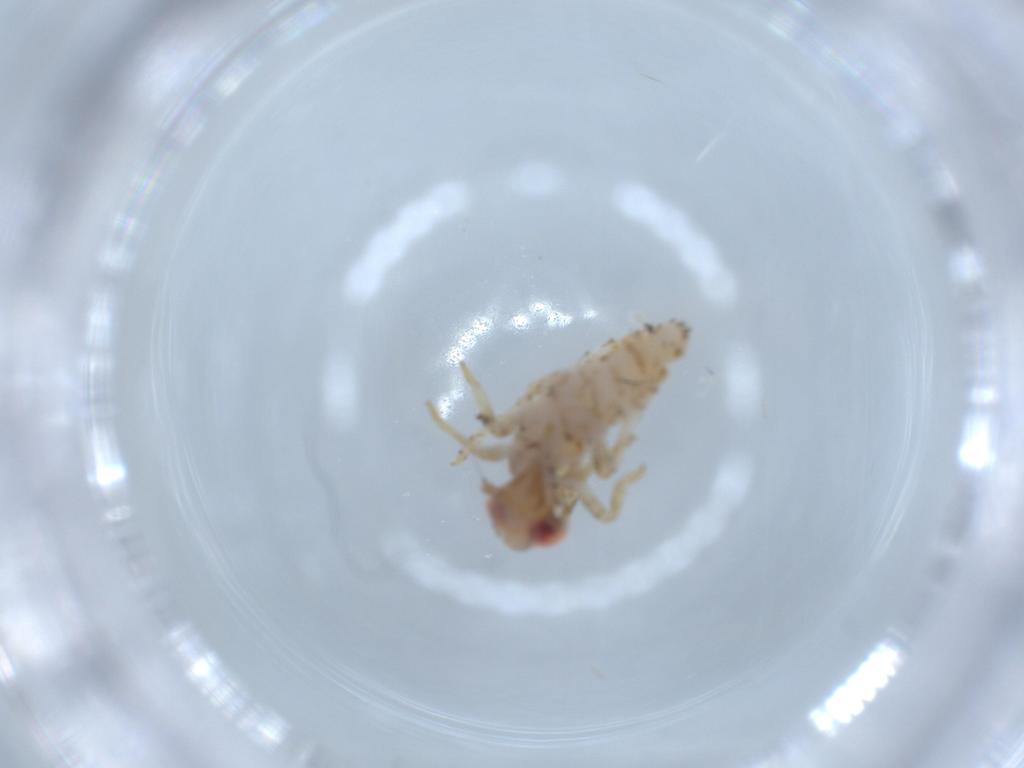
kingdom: Animalia
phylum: Arthropoda
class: Insecta
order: Hemiptera
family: Issidae
